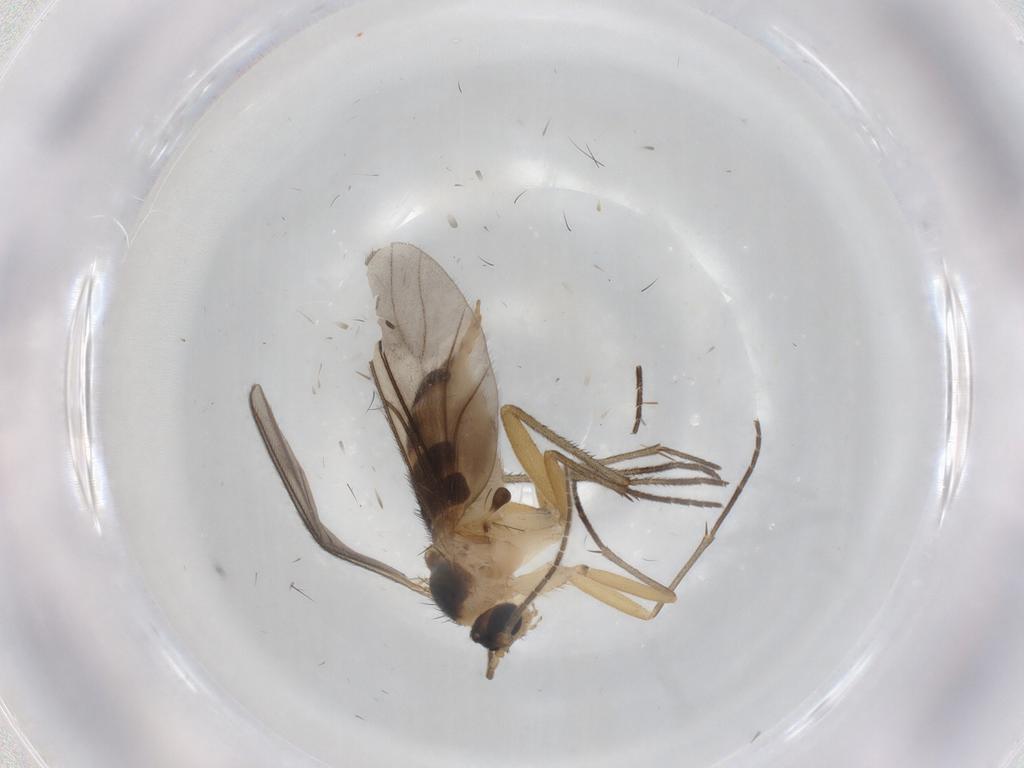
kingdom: Animalia
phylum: Arthropoda
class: Insecta
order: Diptera
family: Sciaridae
